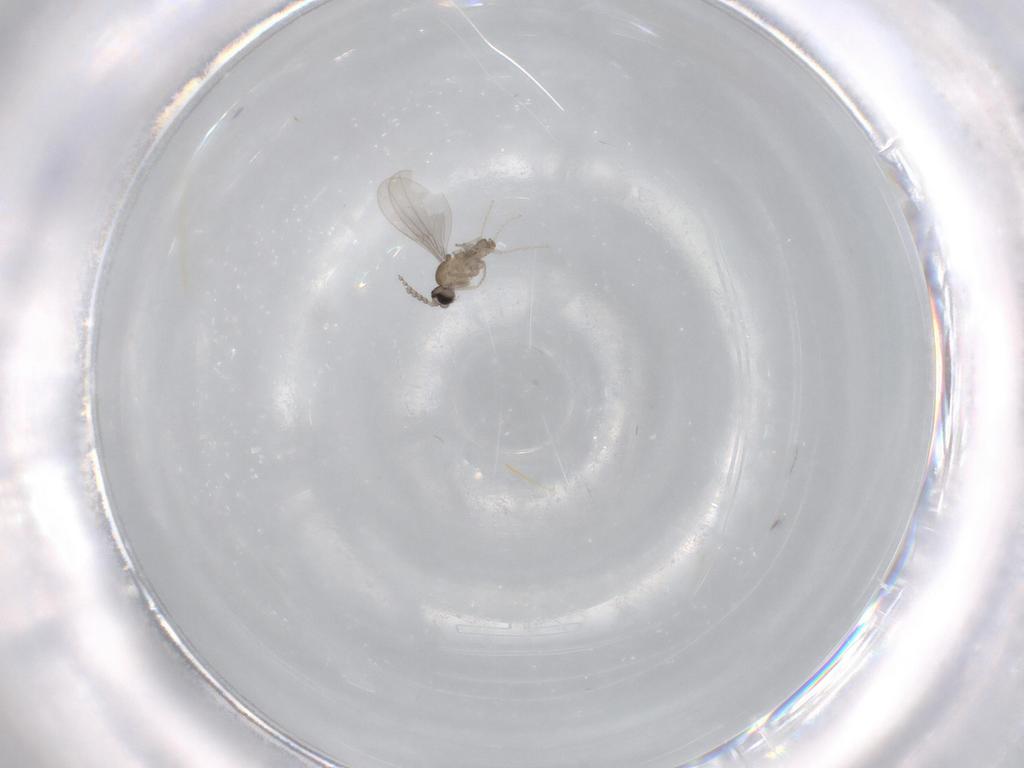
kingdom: Animalia
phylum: Arthropoda
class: Insecta
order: Diptera
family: Cecidomyiidae
